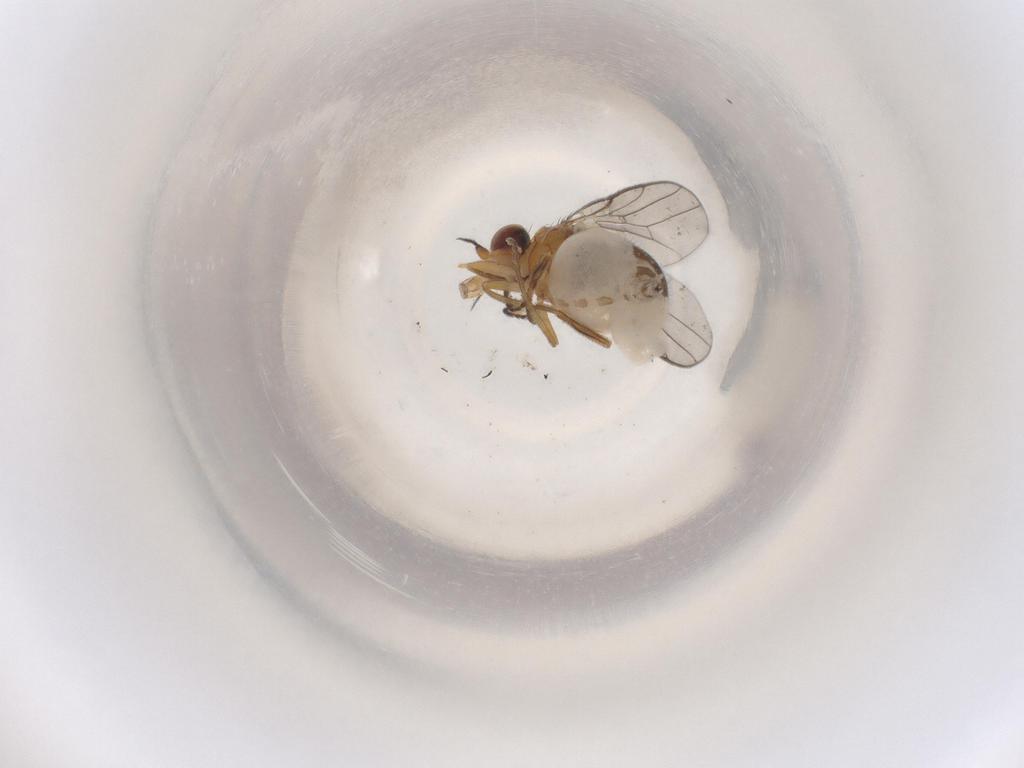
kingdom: Animalia
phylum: Arthropoda
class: Insecta
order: Diptera
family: Chloropidae
